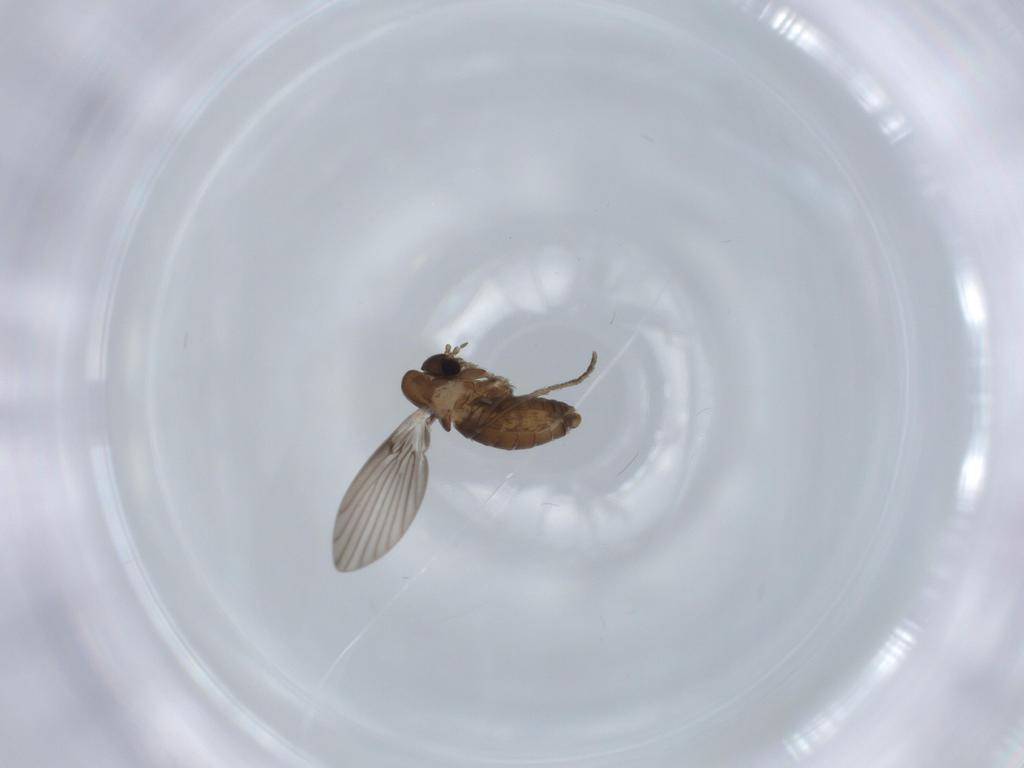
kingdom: Animalia
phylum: Arthropoda
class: Insecta
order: Diptera
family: Psychodidae
